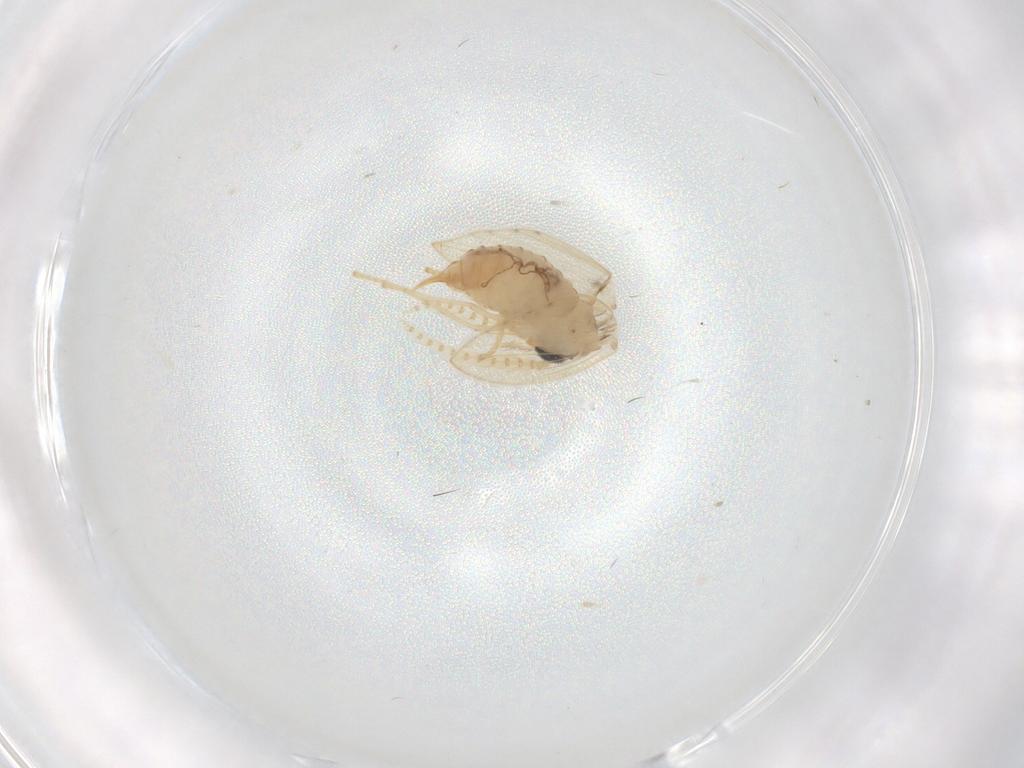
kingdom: Animalia
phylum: Arthropoda
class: Insecta
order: Diptera
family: Psychodidae
